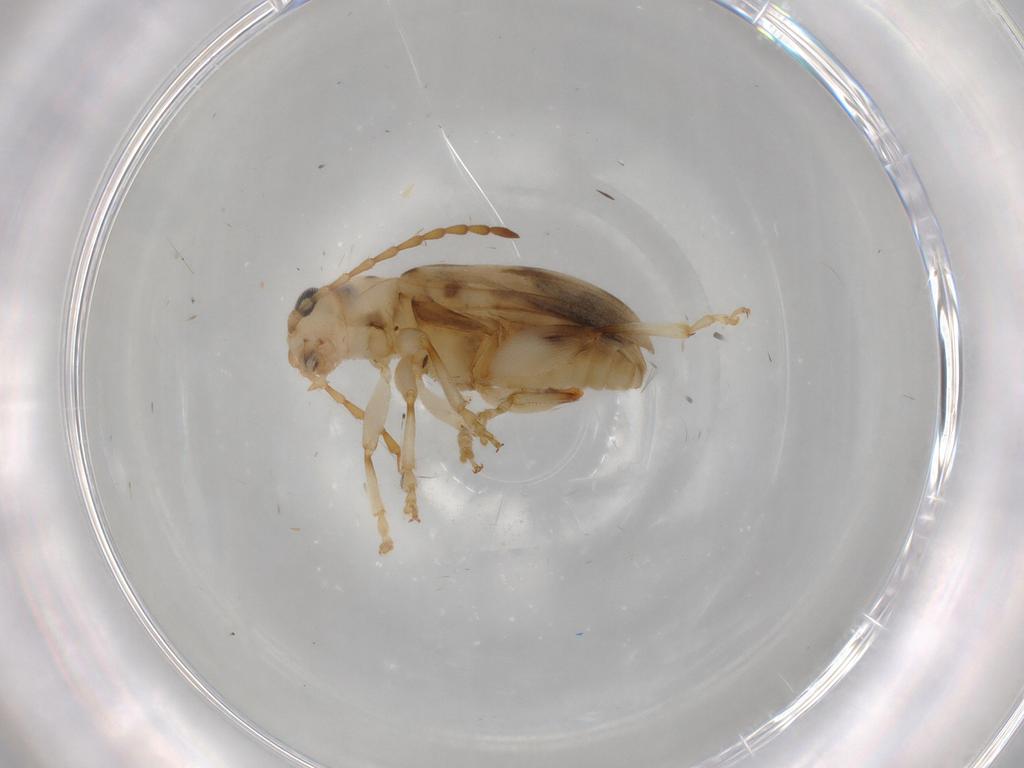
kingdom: Animalia
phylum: Arthropoda
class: Insecta
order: Coleoptera
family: Chrysomelidae
